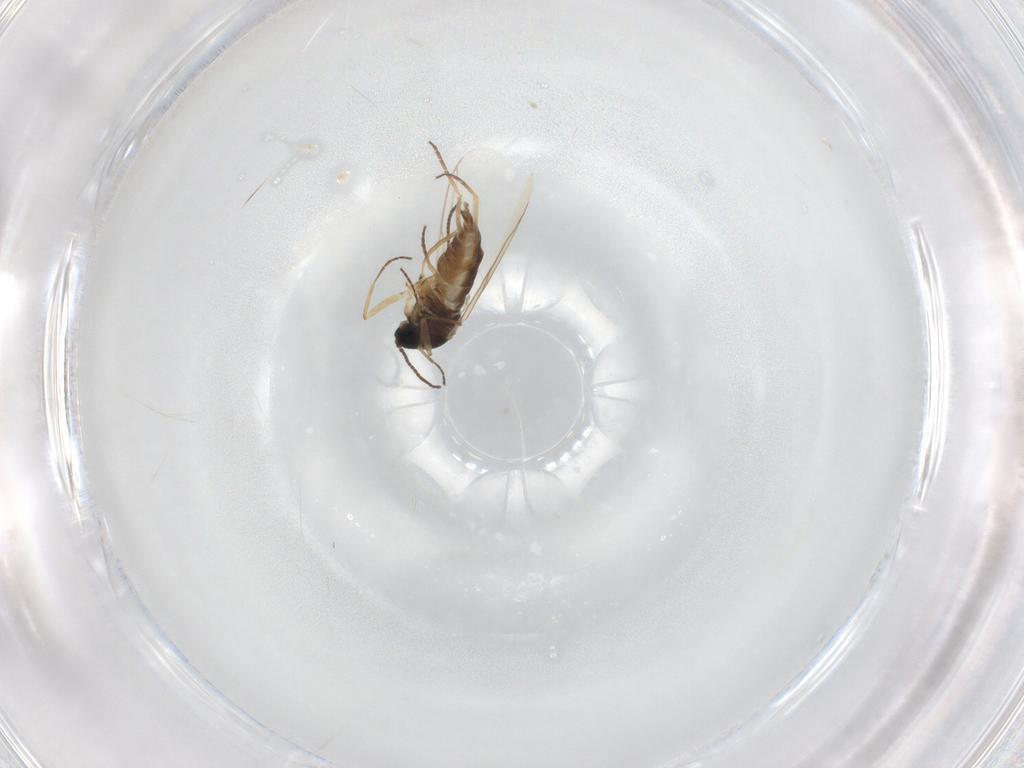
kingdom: Animalia
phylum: Arthropoda
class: Insecta
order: Diptera
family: Sciaridae
